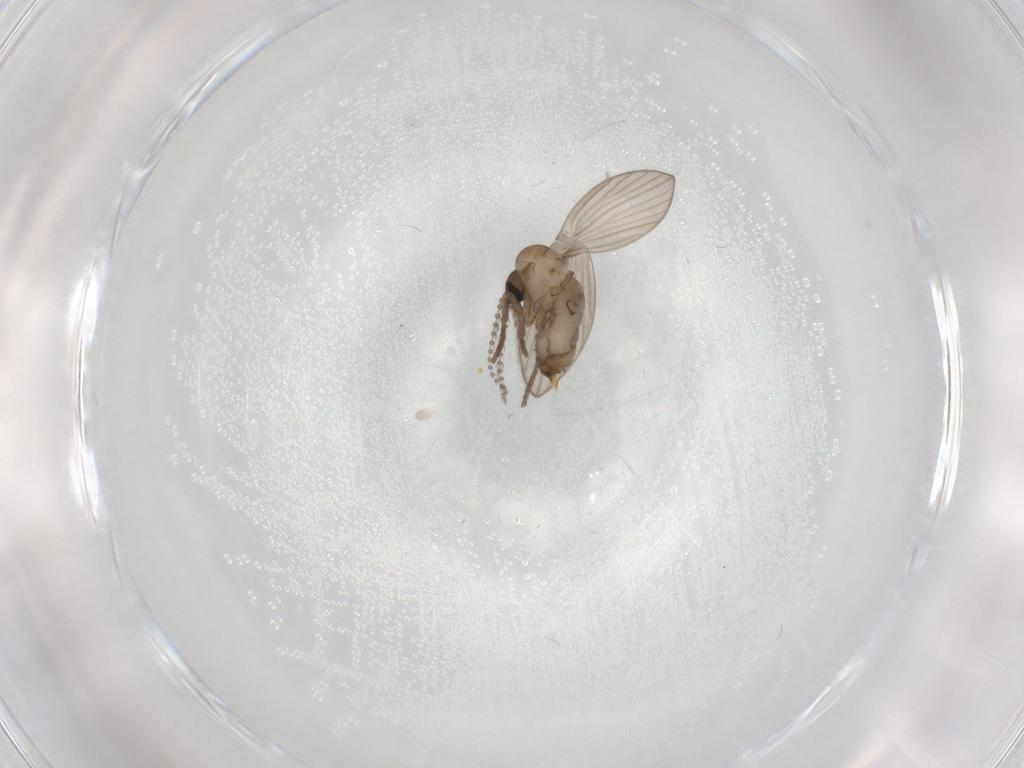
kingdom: Animalia
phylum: Arthropoda
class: Insecta
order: Diptera
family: Psychodidae
